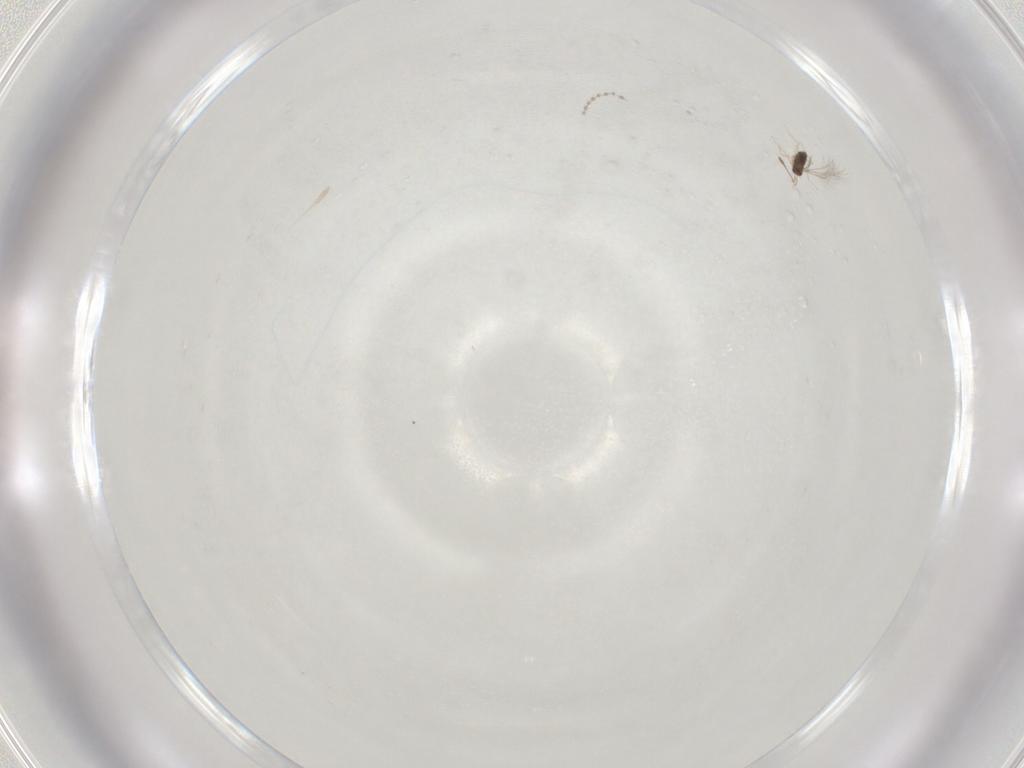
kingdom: Animalia
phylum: Arthropoda
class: Insecta
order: Diptera
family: Cecidomyiidae
